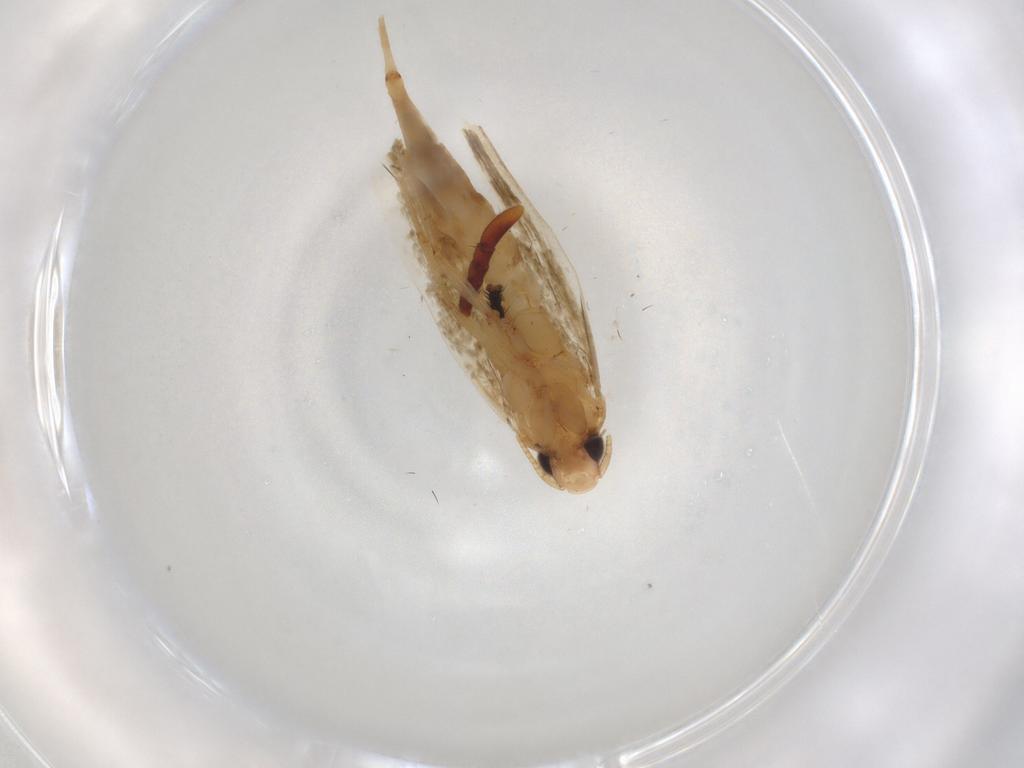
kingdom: Animalia
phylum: Arthropoda
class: Insecta
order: Lepidoptera
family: Tineidae
